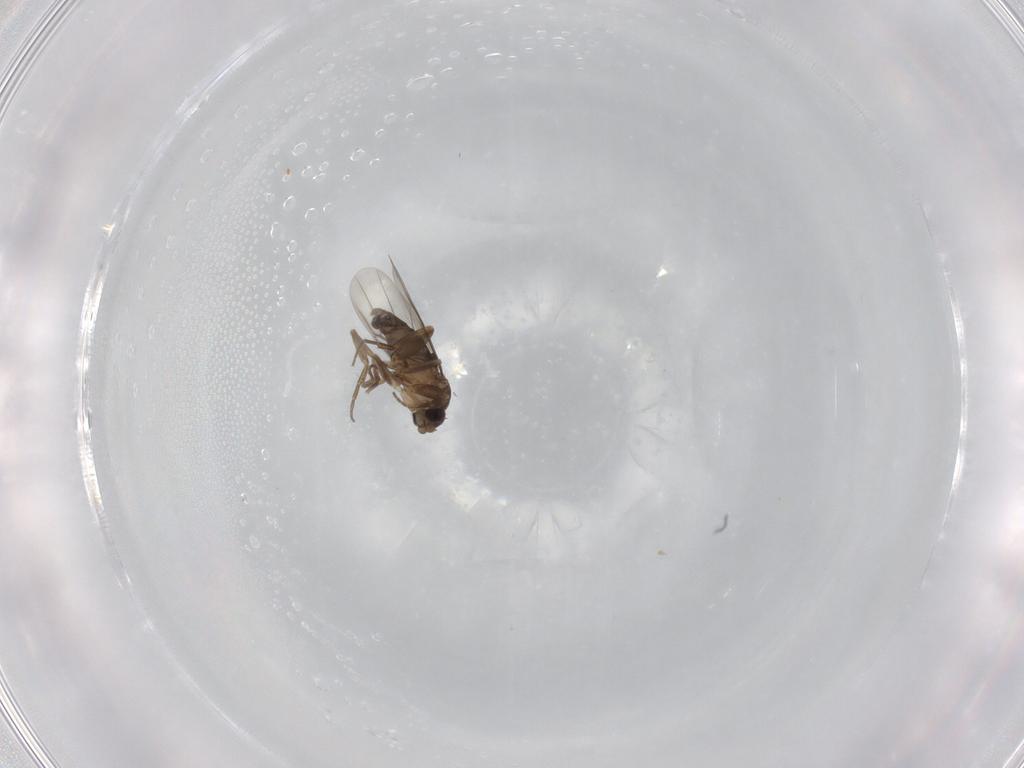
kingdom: Animalia
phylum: Arthropoda
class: Insecta
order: Diptera
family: Phoridae
